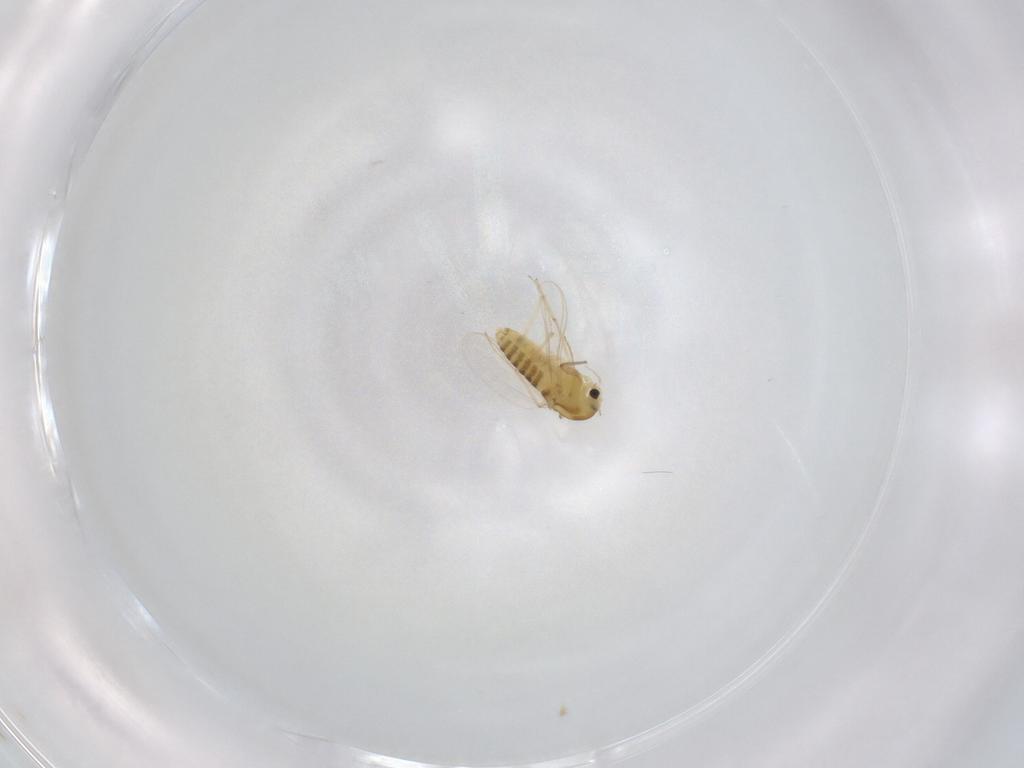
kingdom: Animalia
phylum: Arthropoda
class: Insecta
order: Diptera
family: Chironomidae
